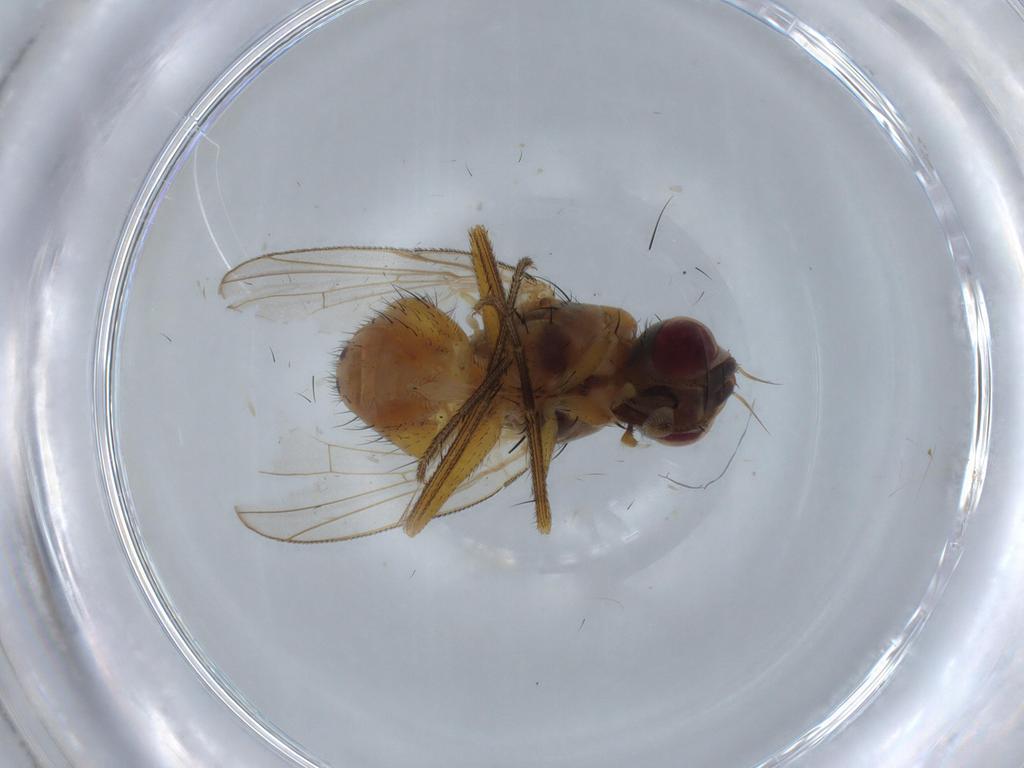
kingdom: Animalia
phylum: Arthropoda
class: Insecta
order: Diptera
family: Muscidae
